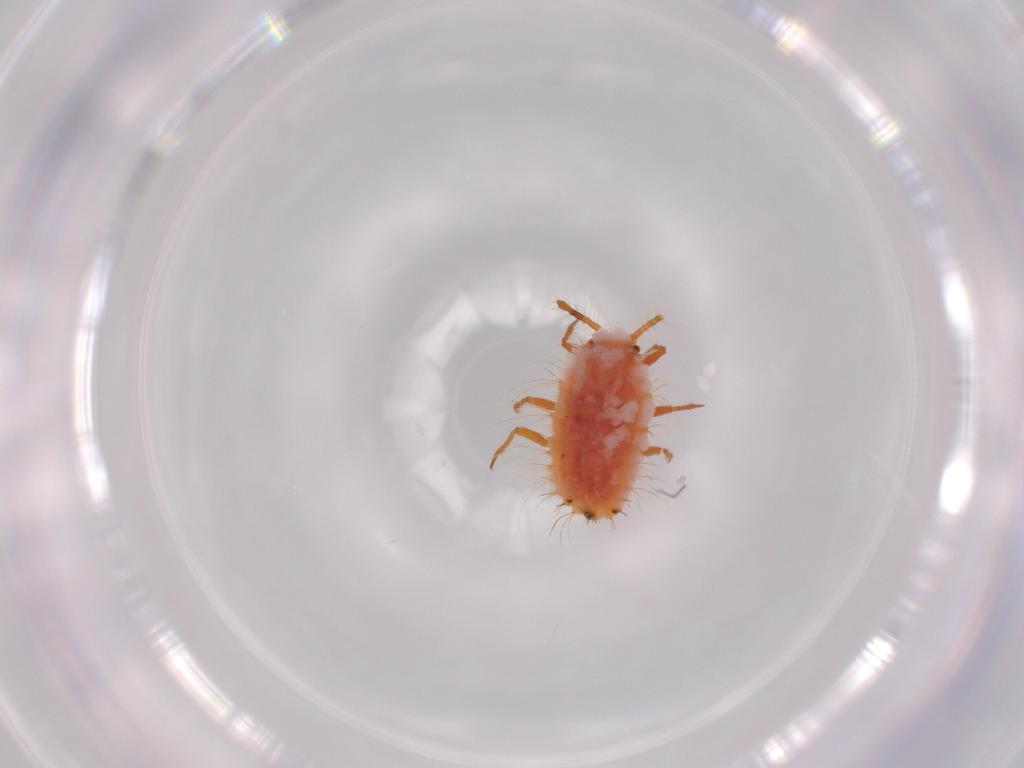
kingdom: Animalia
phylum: Arthropoda
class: Insecta
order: Hemiptera
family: Coccoidea_incertae_sedis
